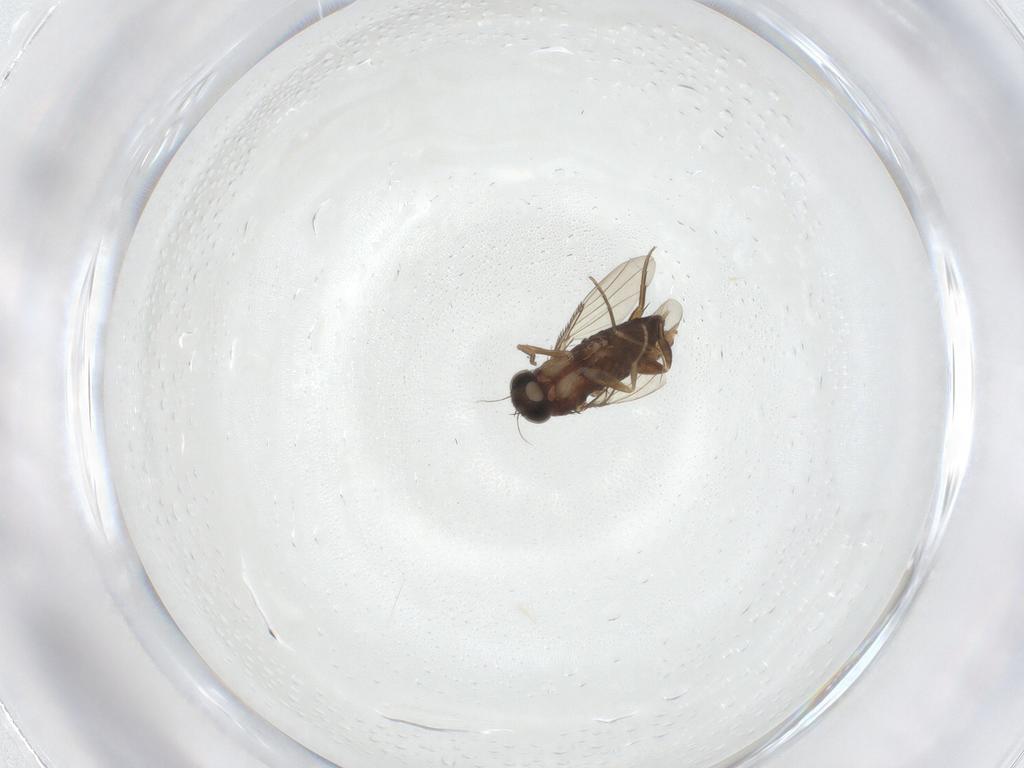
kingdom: Animalia
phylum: Arthropoda
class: Insecta
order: Diptera
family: Phoridae
